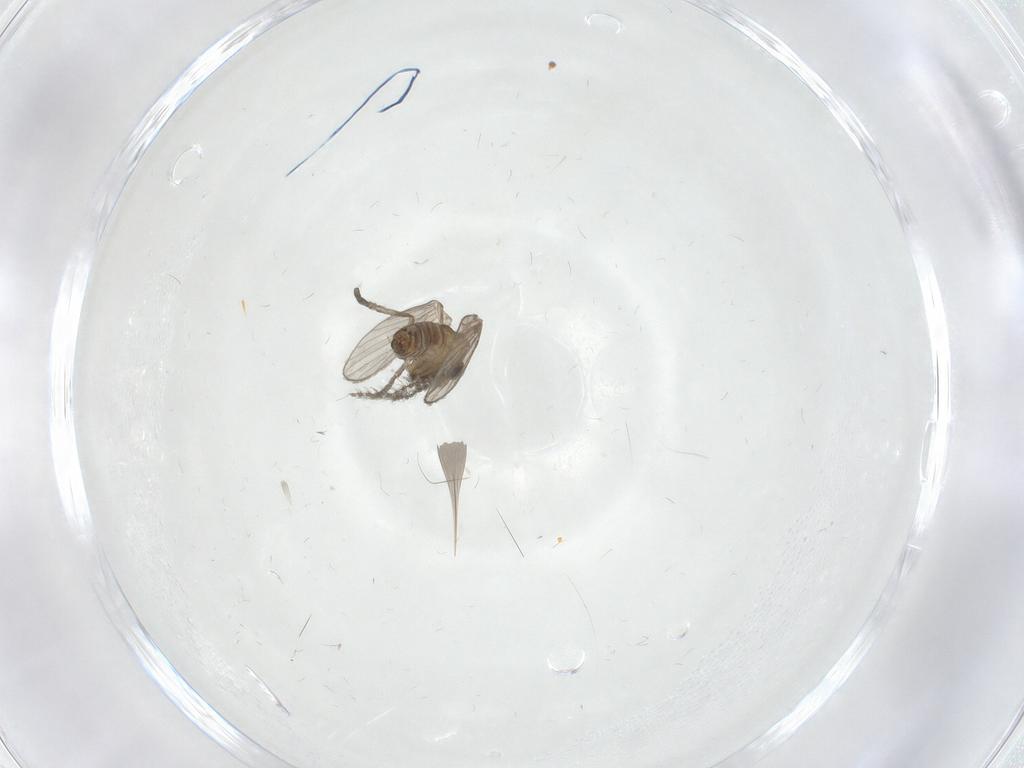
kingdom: Animalia
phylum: Arthropoda
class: Insecta
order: Diptera
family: Psychodidae
